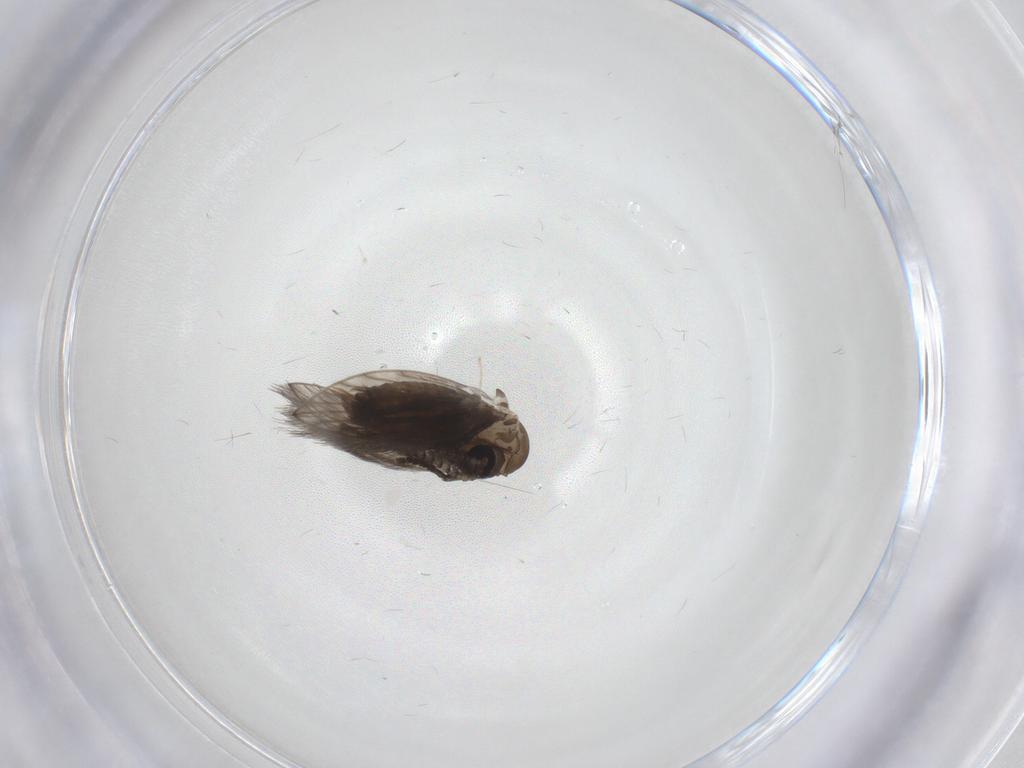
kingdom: Animalia
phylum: Arthropoda
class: Insecta
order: Diptera
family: Psychodidae
